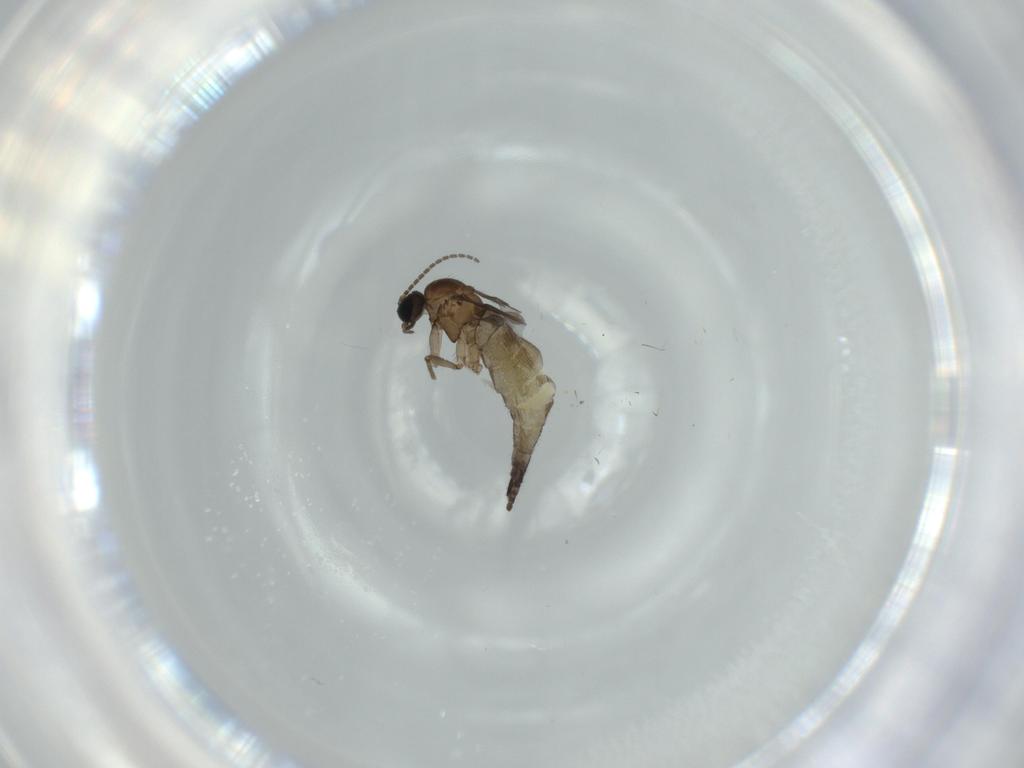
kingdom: Animalia
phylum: Arthropoda
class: Insecta
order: Diptera
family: Sciaridae
